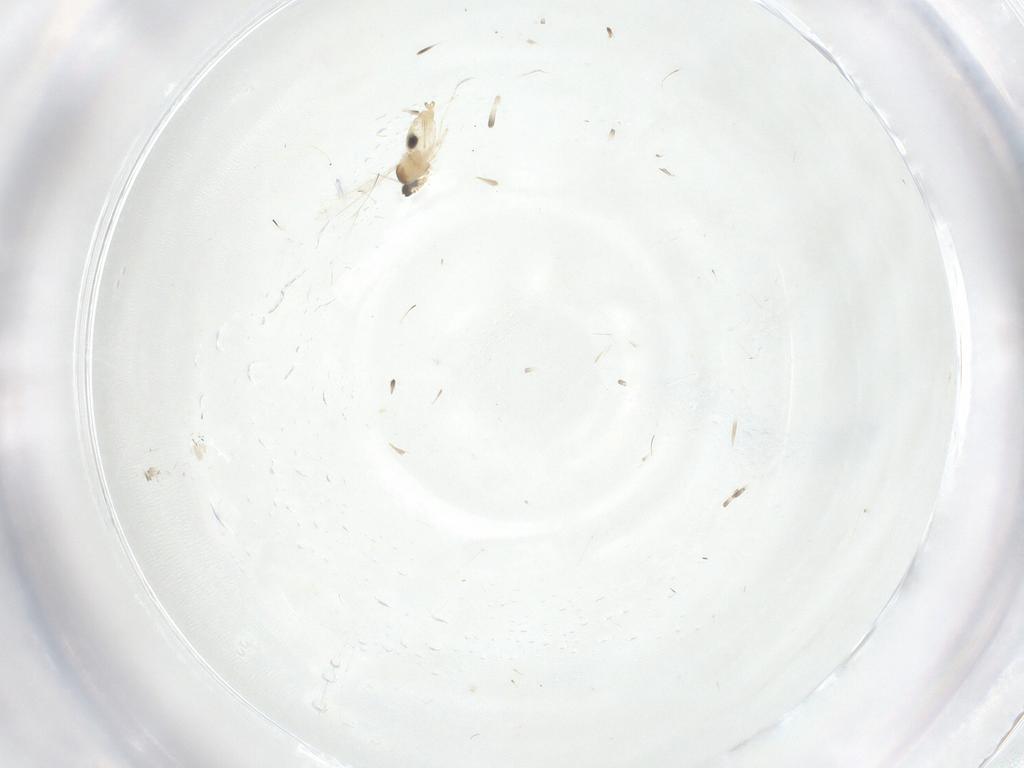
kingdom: Animalia
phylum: Arthropoda
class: Insecta
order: Diptera
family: Cecidomyiidae
